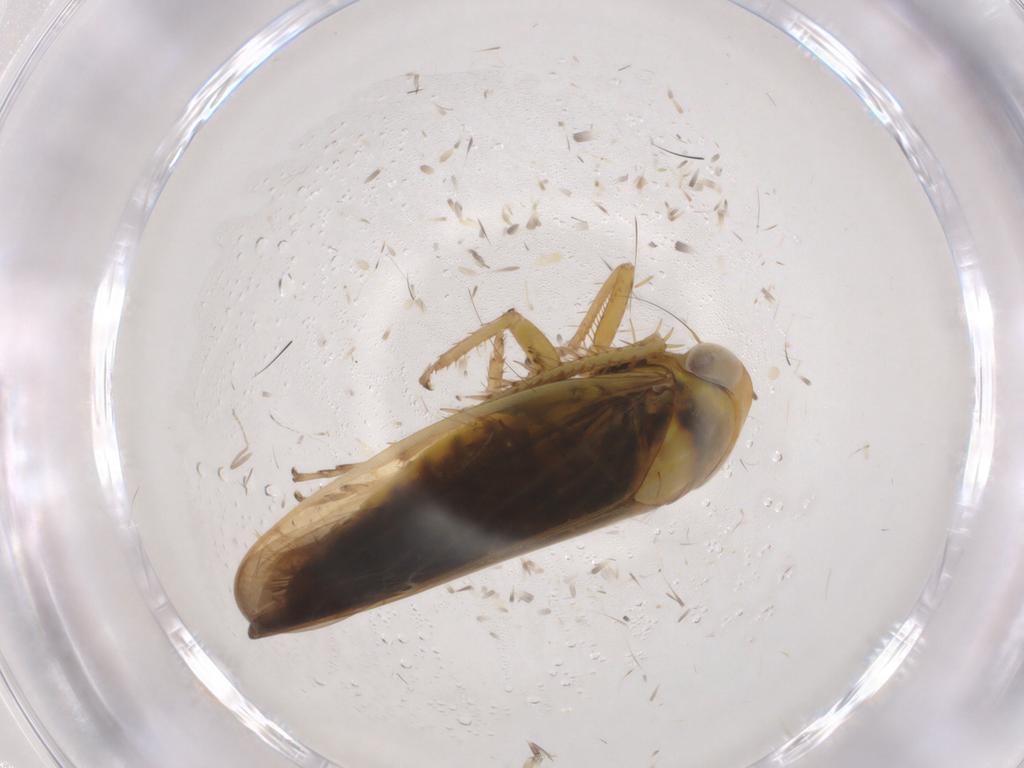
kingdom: Animalia
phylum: Arthropoda
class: Insecta
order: Hemiptera
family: Cicadellidae
